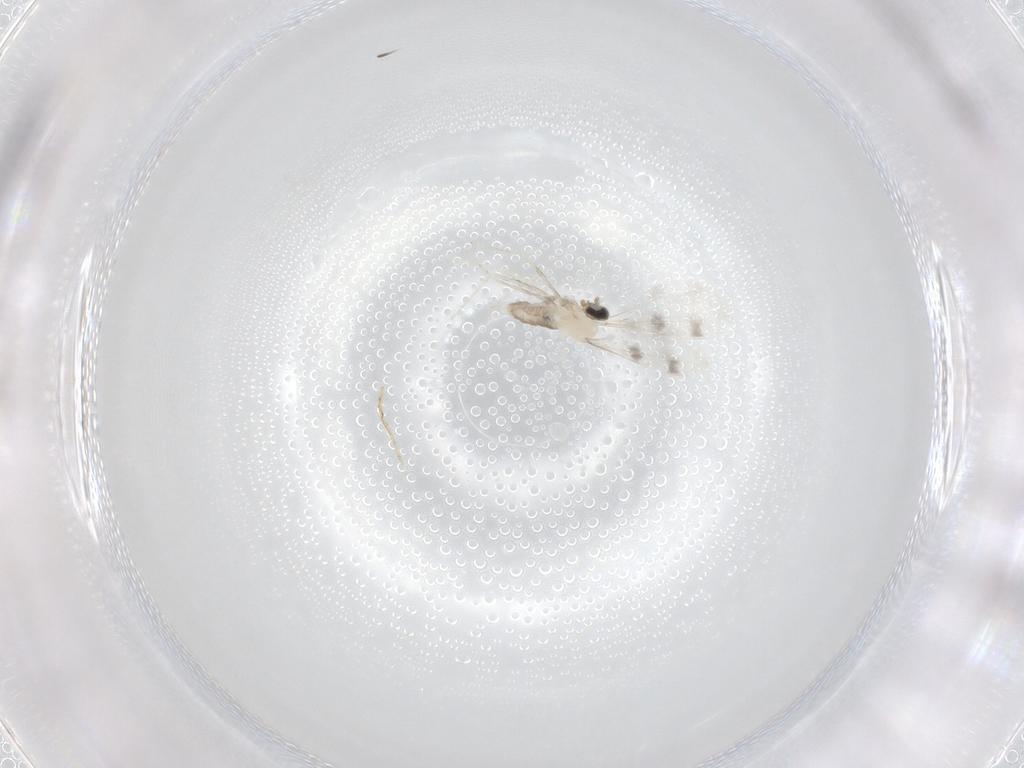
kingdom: Animalia
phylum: Arthropoda
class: Insecta
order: Diptera
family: Cecidomyiidae
